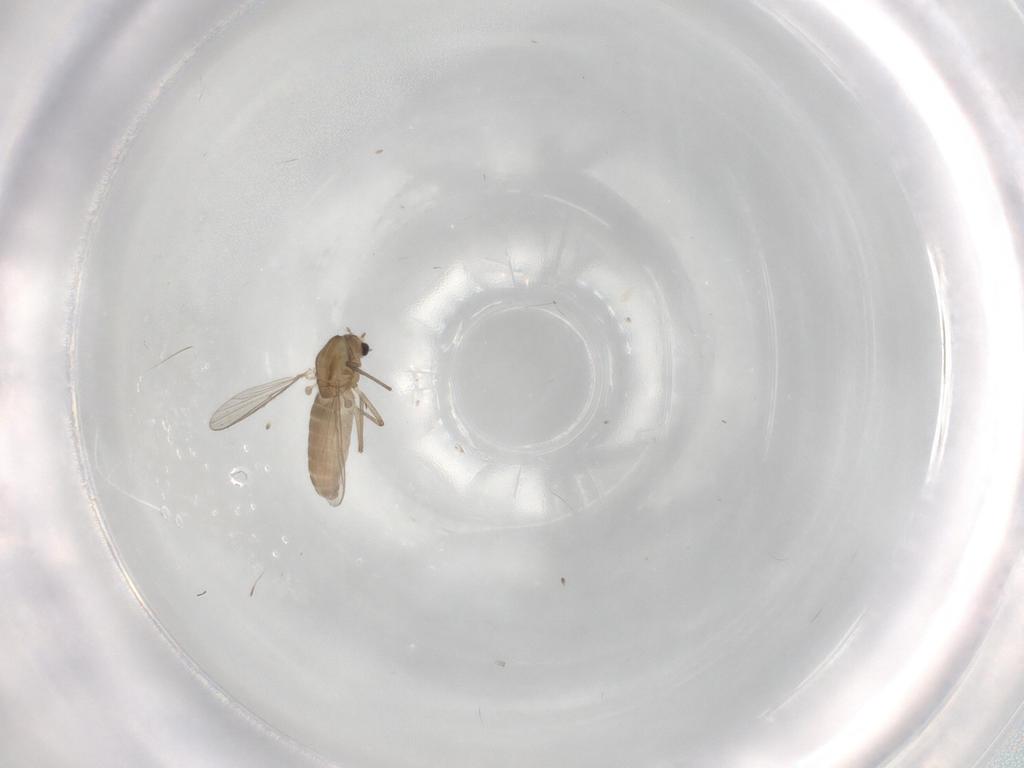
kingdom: Animalia
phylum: Arthropoda
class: Insecta
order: Diptera
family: Chironomidae
